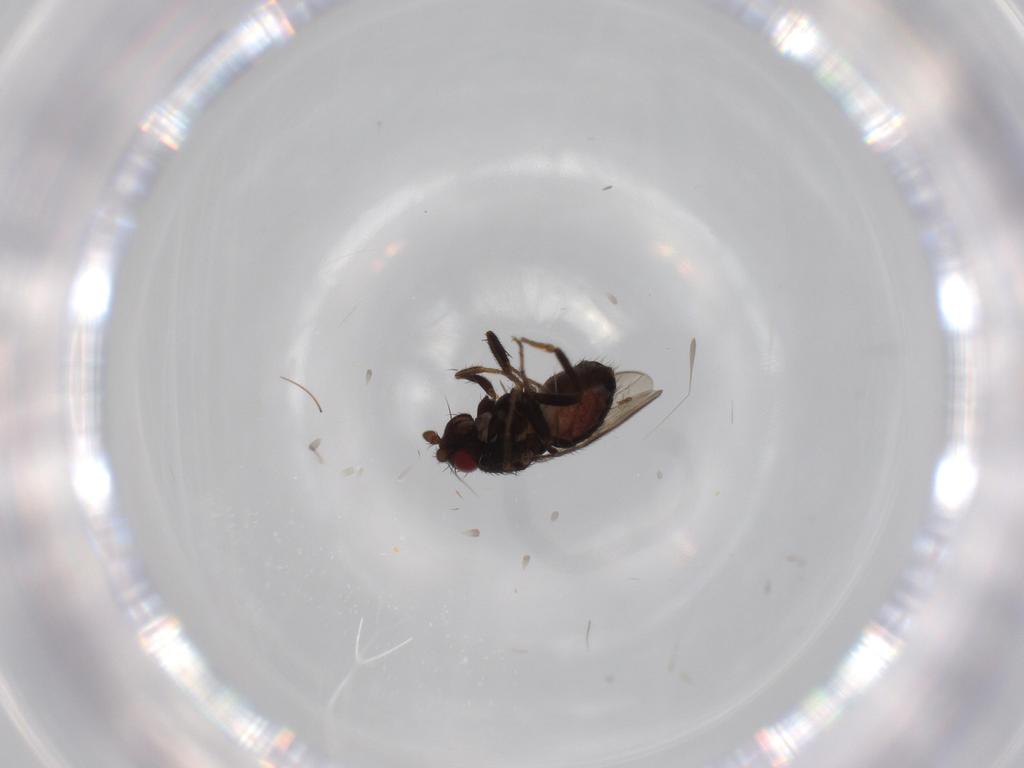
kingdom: Animalia
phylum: Arthropoda
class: Insecta
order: Diptera
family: Sphaeroceridae
